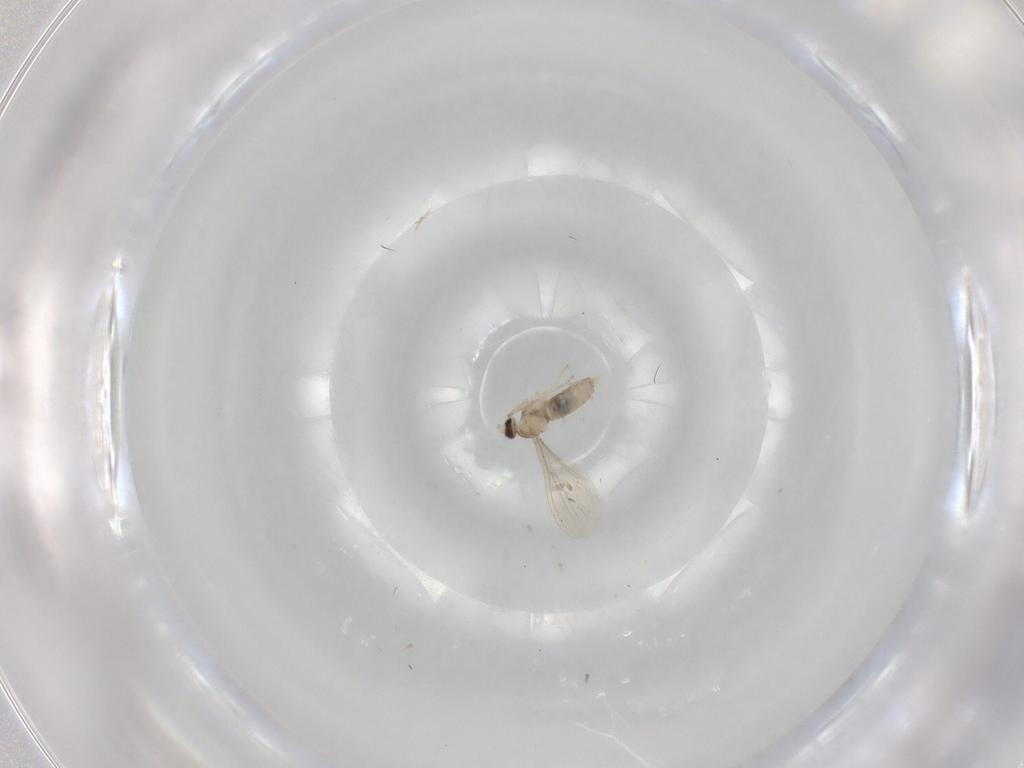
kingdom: Animalia
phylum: Arthropoda
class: Insecta
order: Diptera
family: Cecidomyiidae
